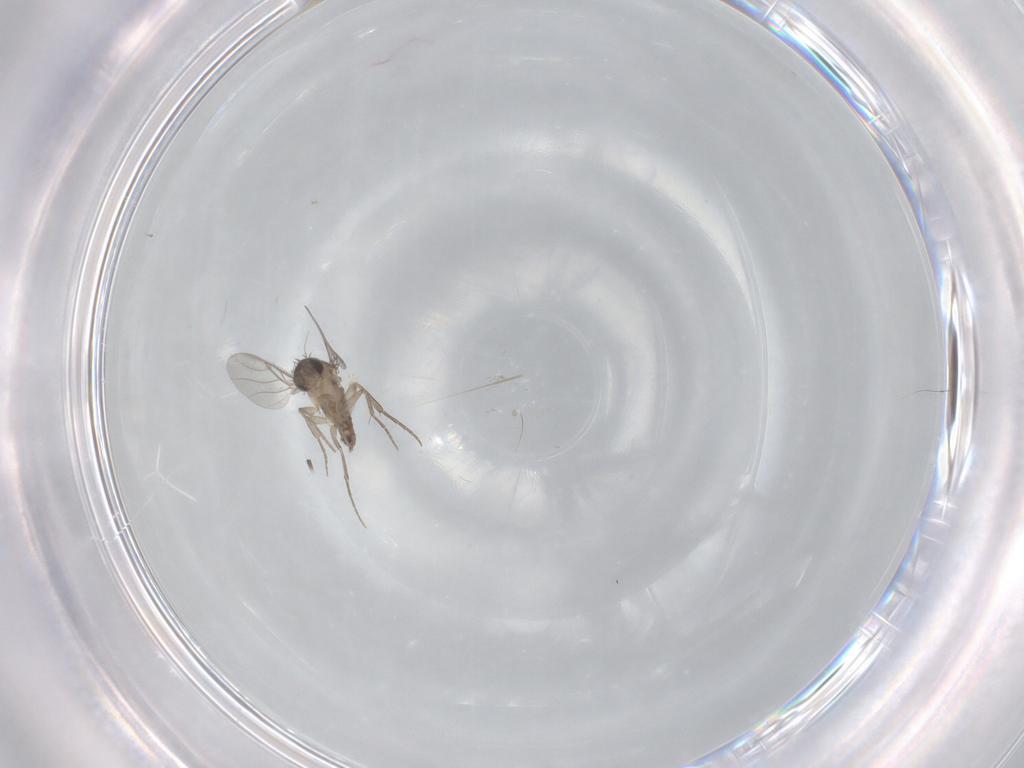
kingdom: Animalia
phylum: Arthropoda
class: Insecta
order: Diptera
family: Phoridae
